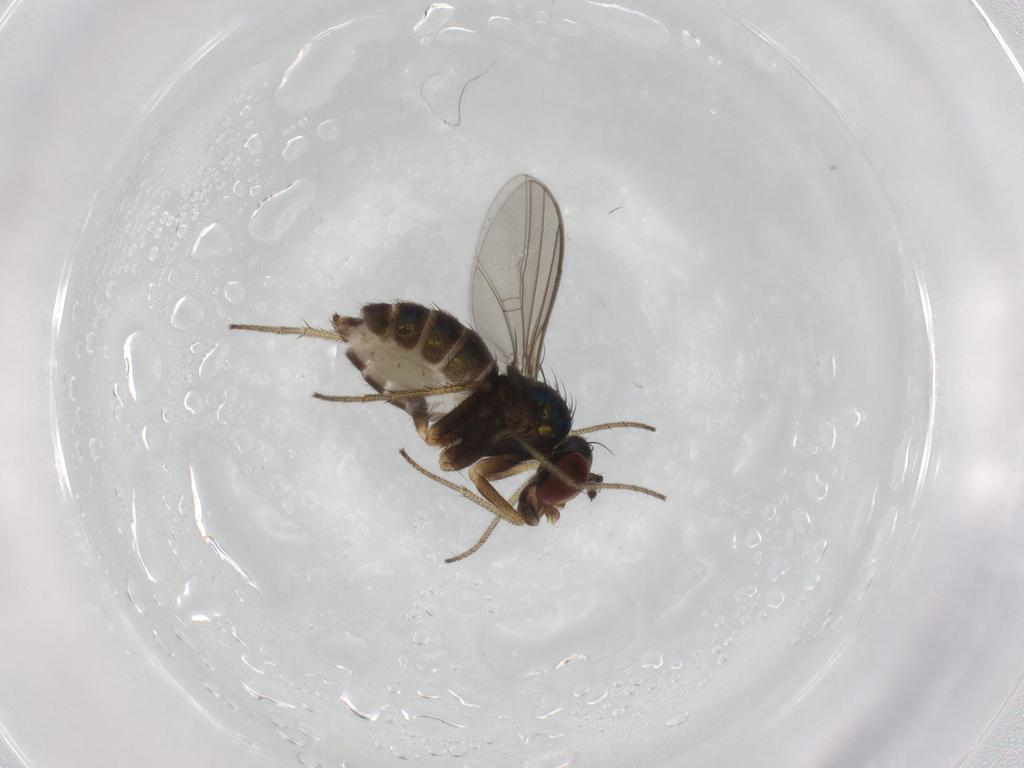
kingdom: Animalia
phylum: Arthropoda
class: Insecta
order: Diptera
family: Dolichopodidae
